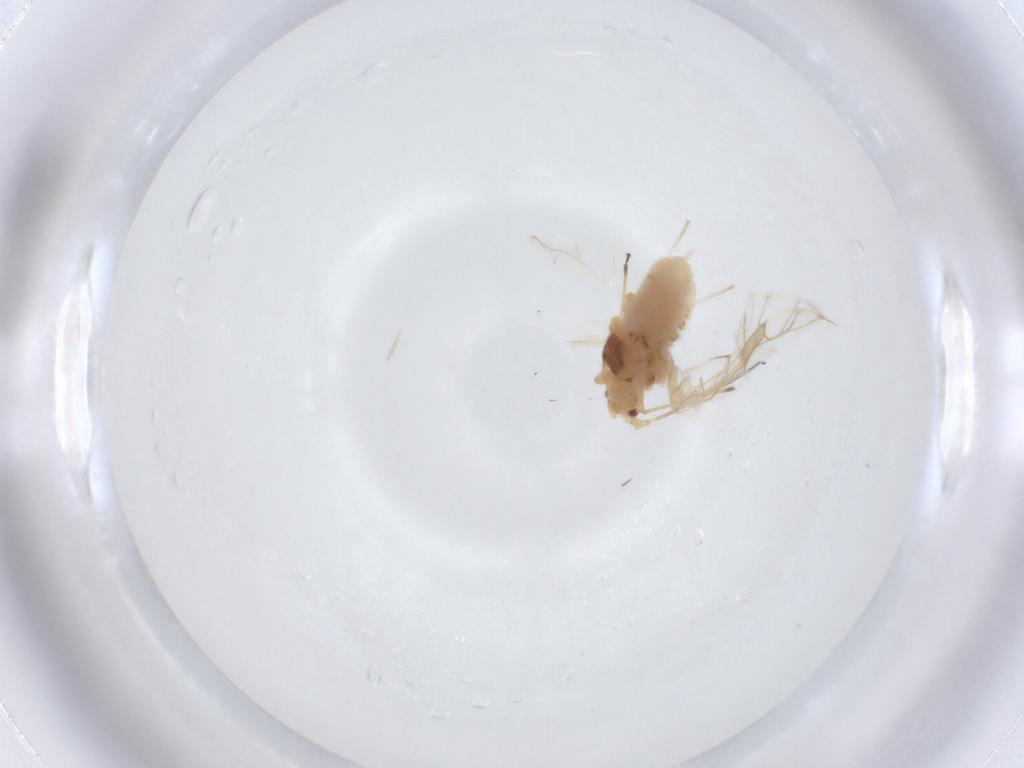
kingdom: Animalia
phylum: Arthropoda
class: Insecta
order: Hemiptera
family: Aphididae
